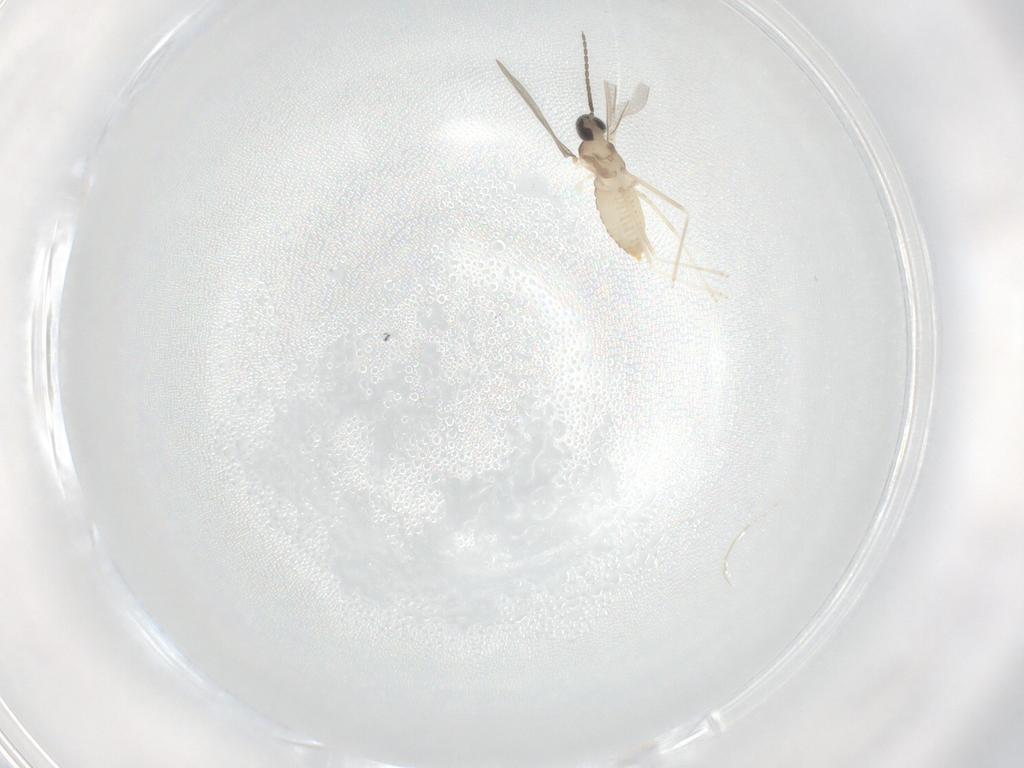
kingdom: Animalia
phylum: Arthropoda
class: Insecta
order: Diptera
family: Cecidomyiidae
